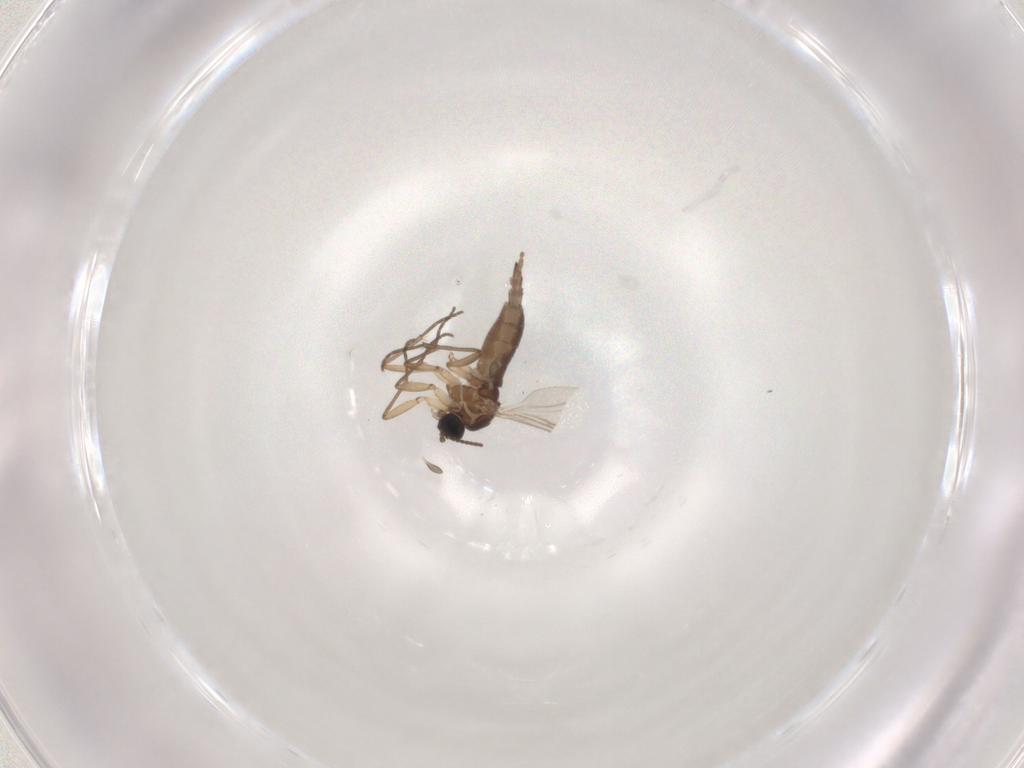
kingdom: Animalia
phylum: Arthropoda
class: Insecta
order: Diptera
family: Sciaridae
